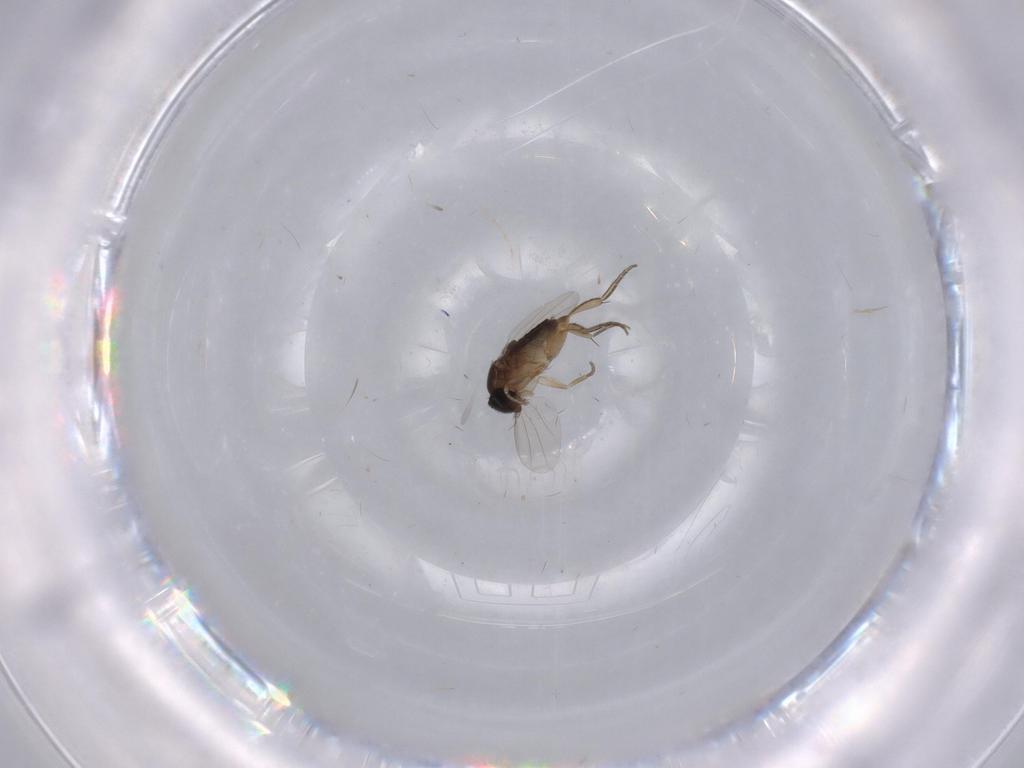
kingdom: Animalia
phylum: Arthropoda
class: Insecta
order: Diptera
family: Phoridae
